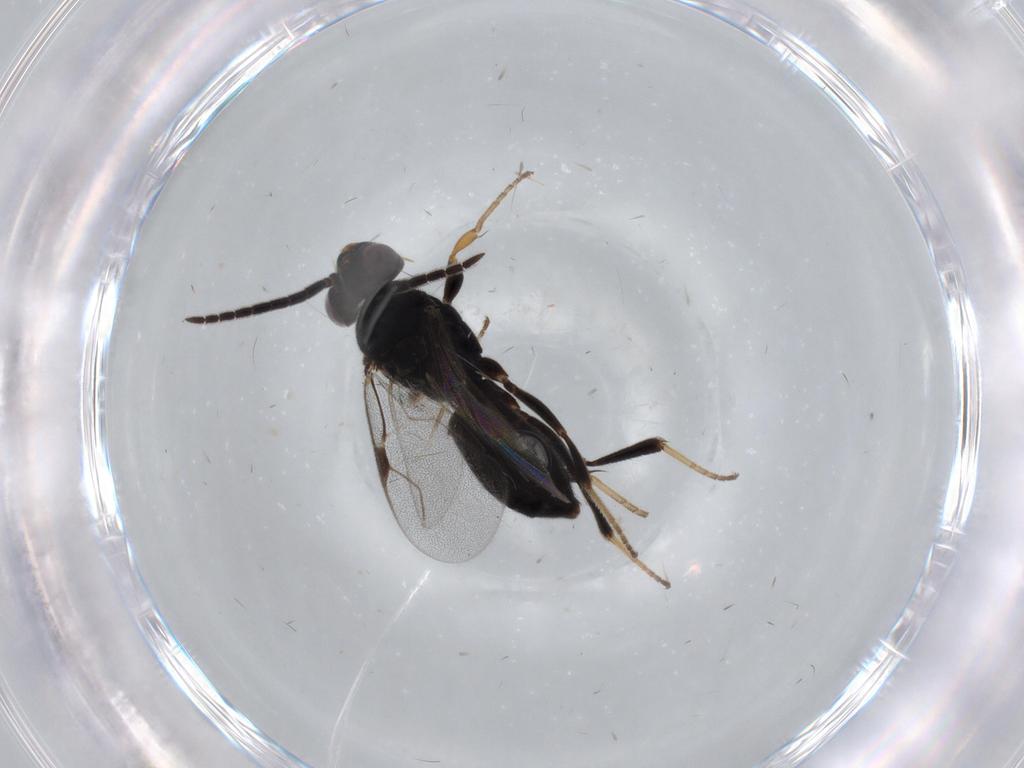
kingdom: Animalia
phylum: Arthropoda
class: Insecta
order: Hymenoptera
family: Dryinidae
